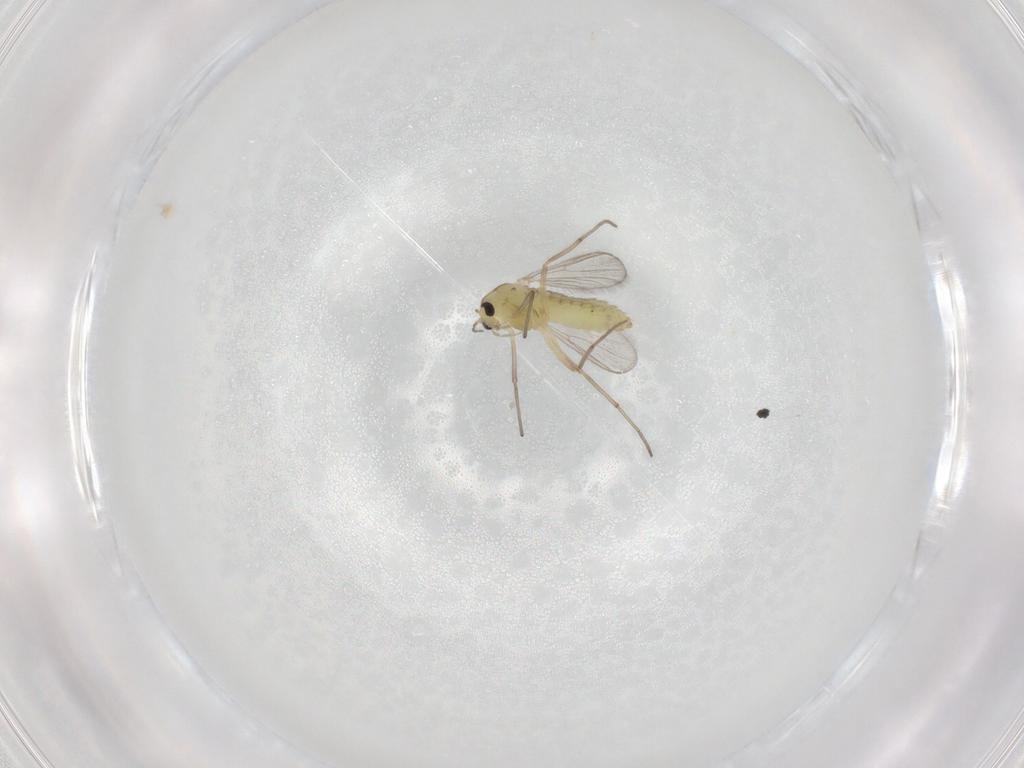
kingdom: Animalia
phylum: Arthropoda
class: Insecta
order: Diptera
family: Chironomidae
